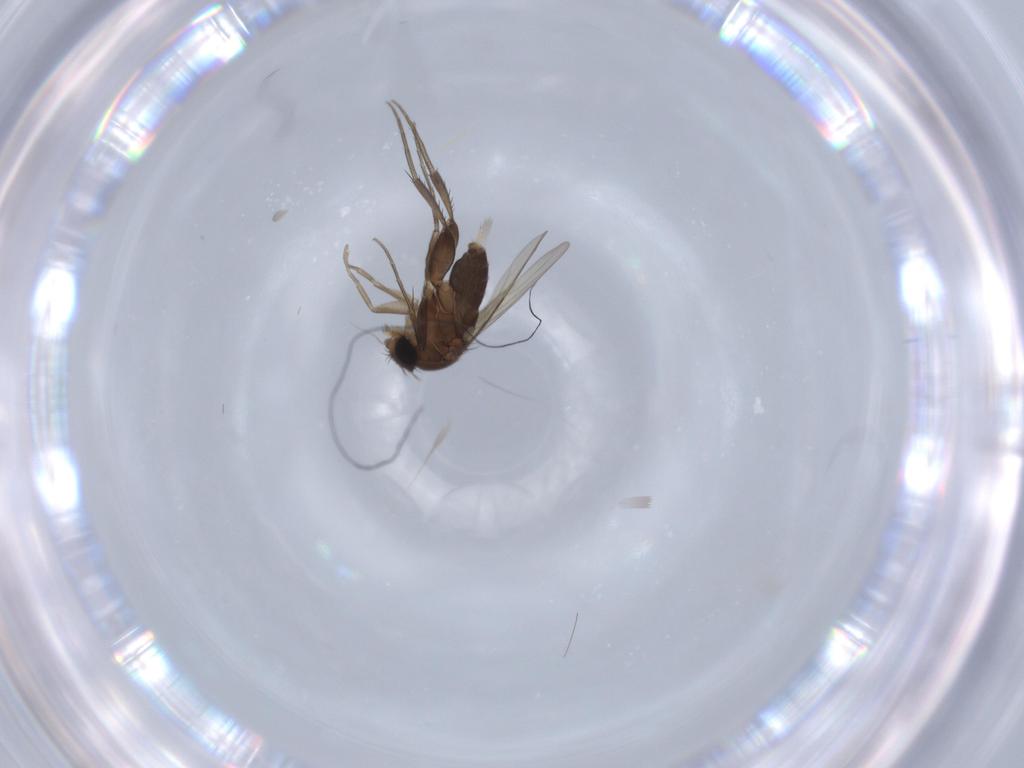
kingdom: Animalia
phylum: Arthropoda
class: Insecta
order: Diptera
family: Phoridae
